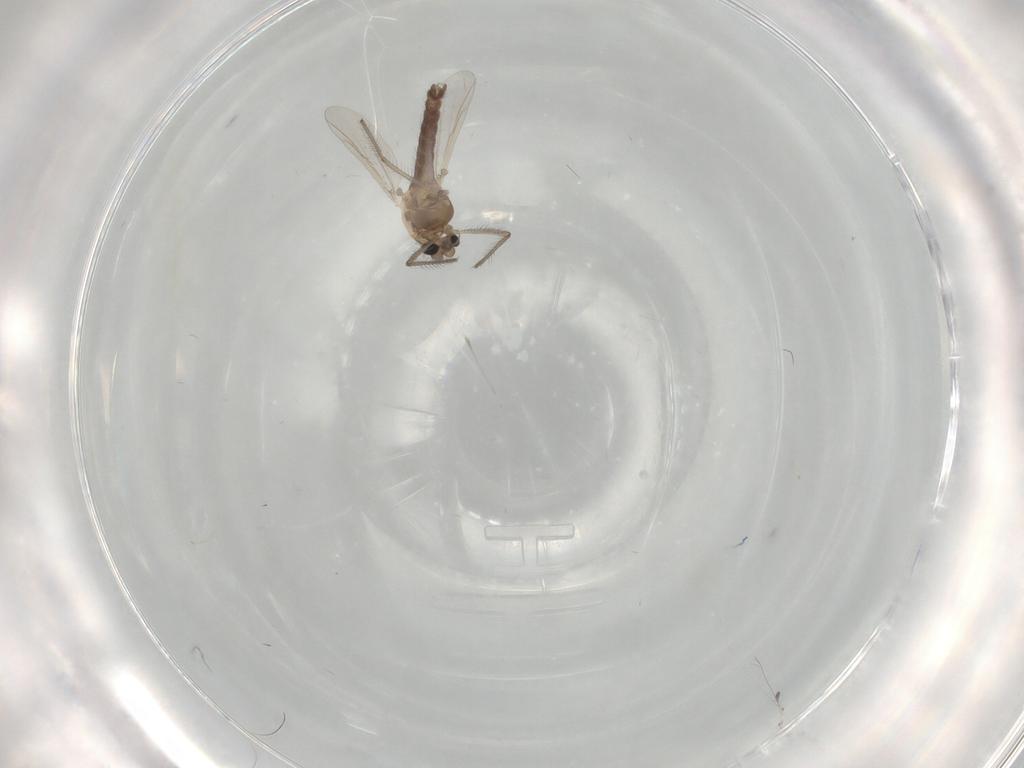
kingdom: Animalia
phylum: Arthropoda
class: Insecta
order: Diptera
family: Chironomidae
